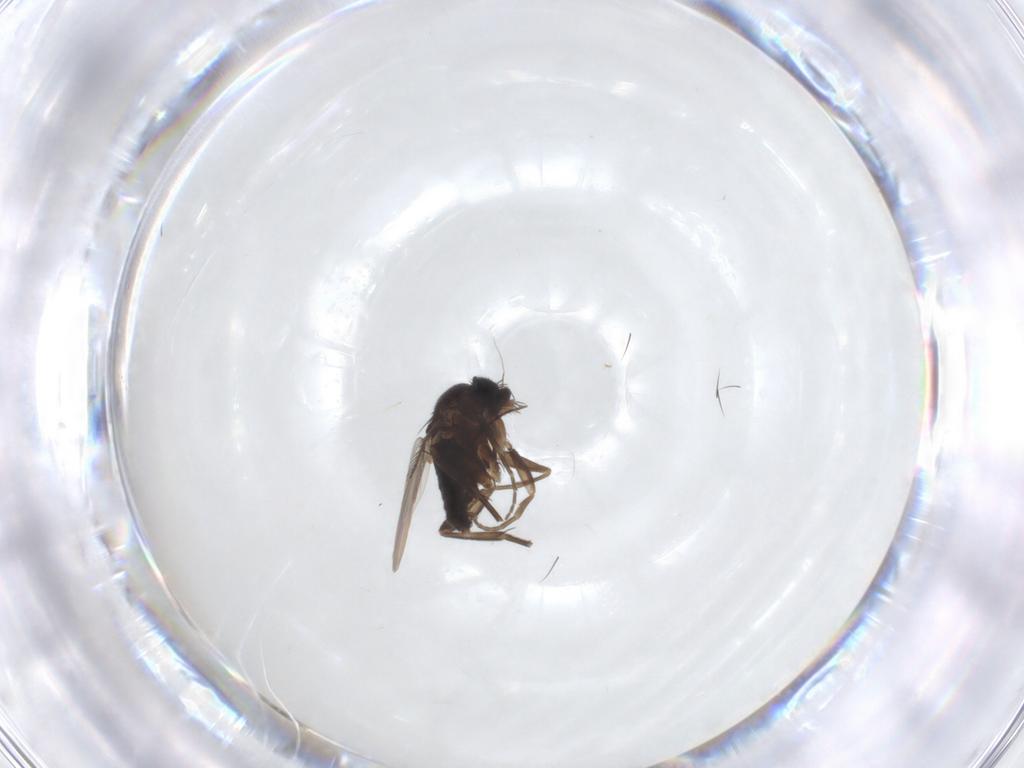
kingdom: Animalia
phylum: Arthropoda
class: Insecta
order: Diptera
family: Phoridae
